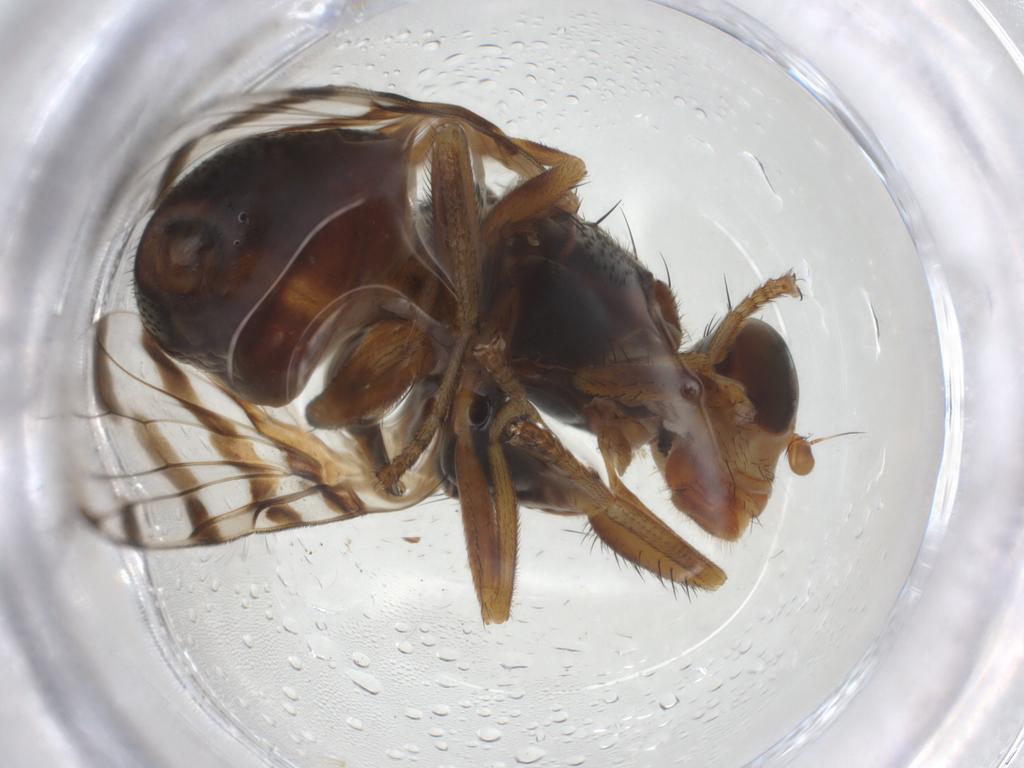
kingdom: Animalia
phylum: Arthropoda
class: Insecta
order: Diptera
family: Ulidiidae
